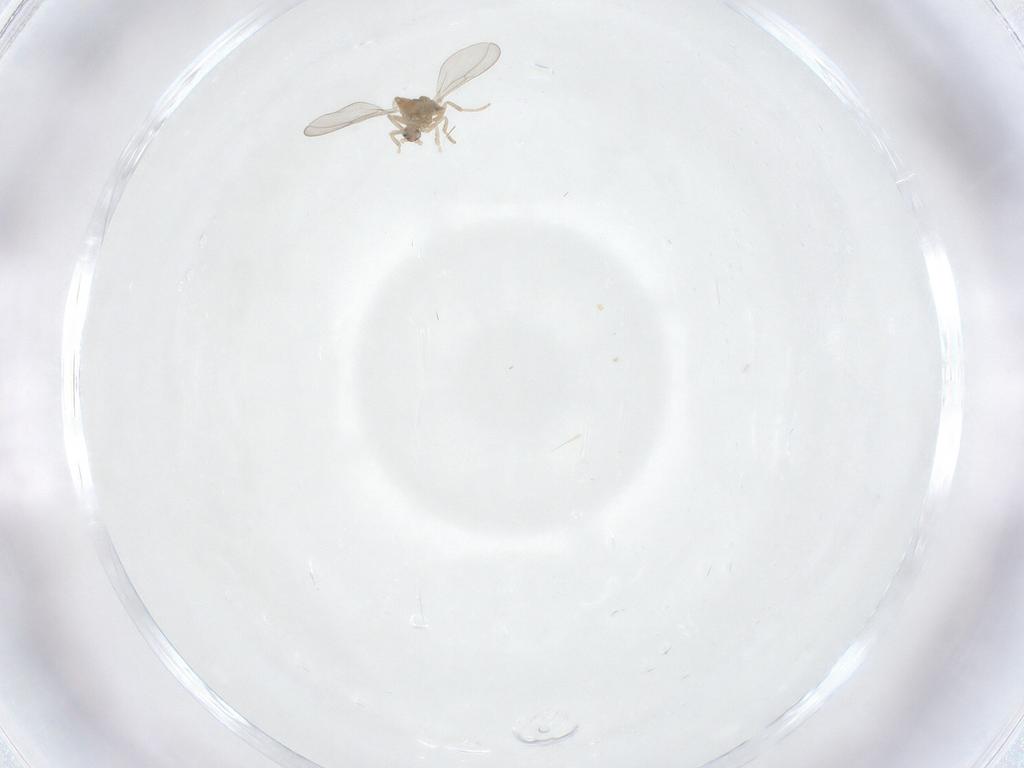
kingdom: Animalia
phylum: Arthropoda
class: Insecta
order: Diptera
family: Cecidomyiidae
